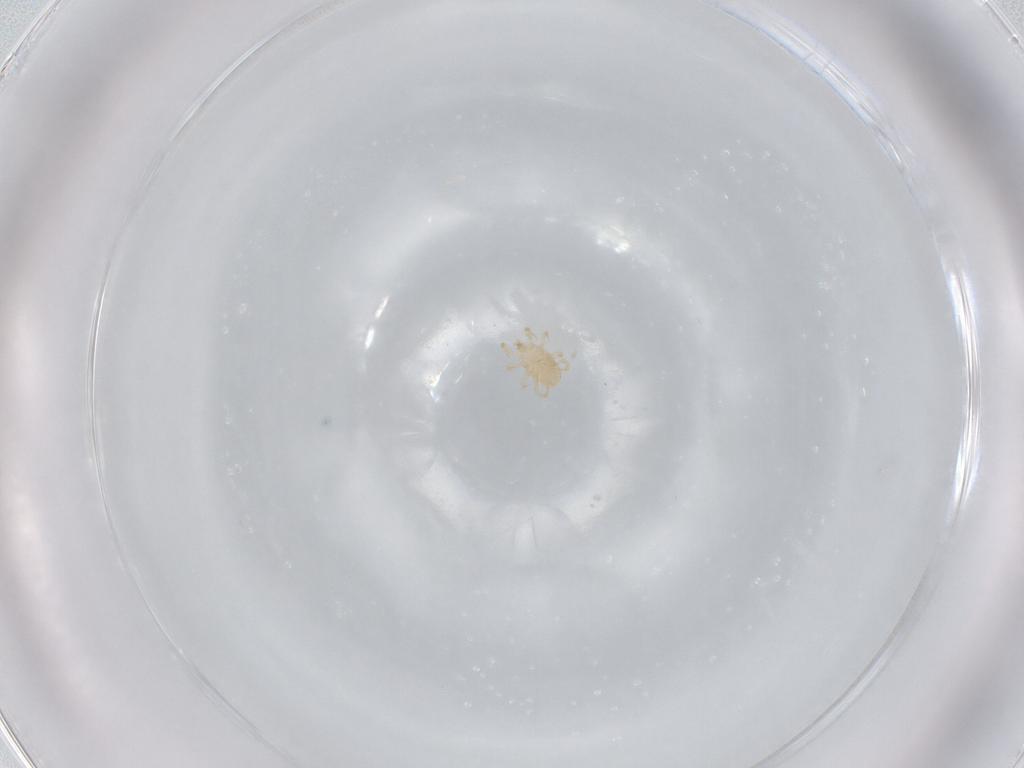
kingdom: Animalia
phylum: Arthropoda
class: Arachnida
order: Mesostigmata
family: Blattisociidae
